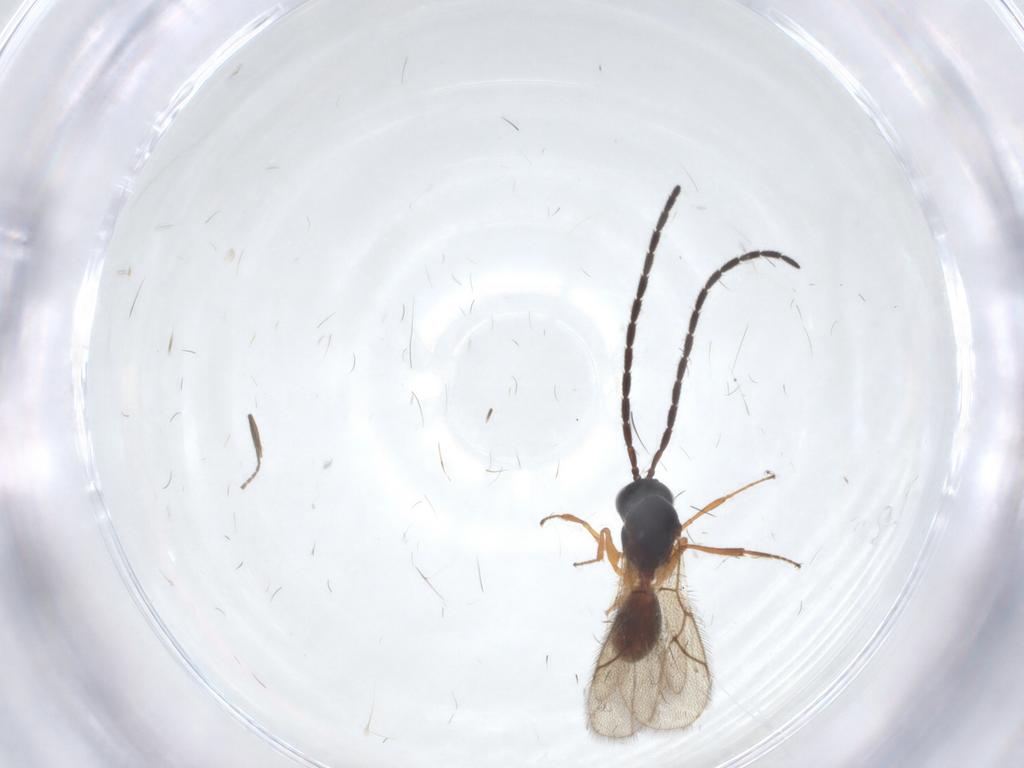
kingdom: Animalia
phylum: Arthropoda
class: Insecta
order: Hymenoptera
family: Figitidae
